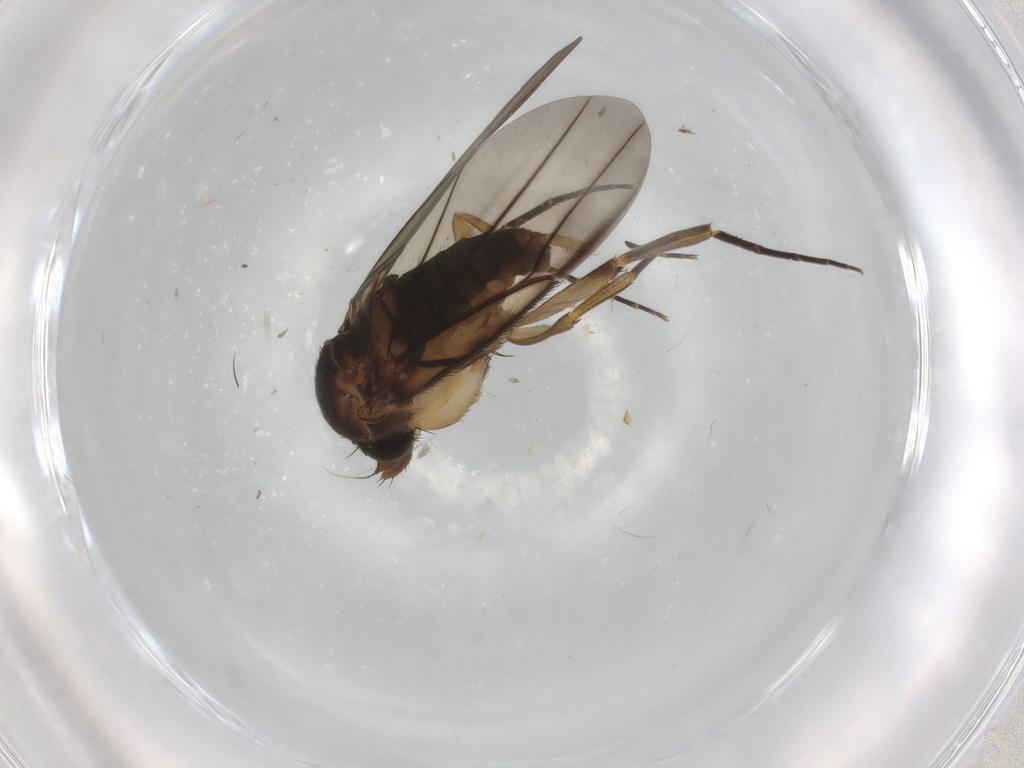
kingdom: Animalia
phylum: Arthropoda
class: Insecta
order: Diptera
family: Phoridae
